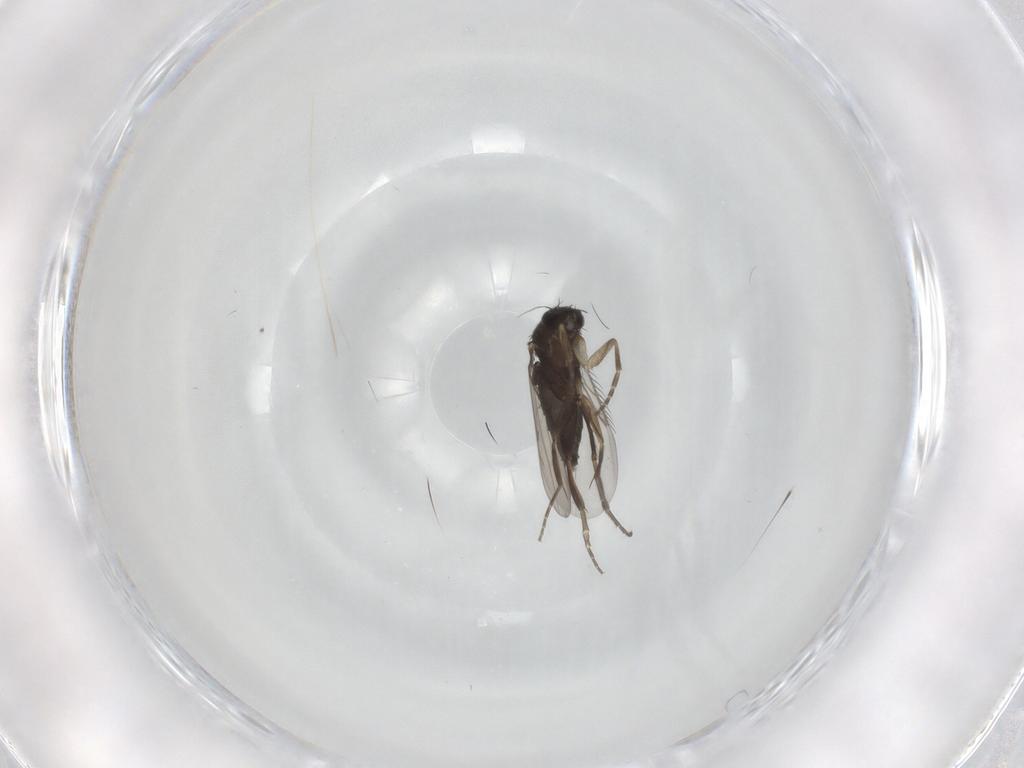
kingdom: Animalia
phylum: Arthropoda
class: Insecta
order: Diptera
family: Phoridae
